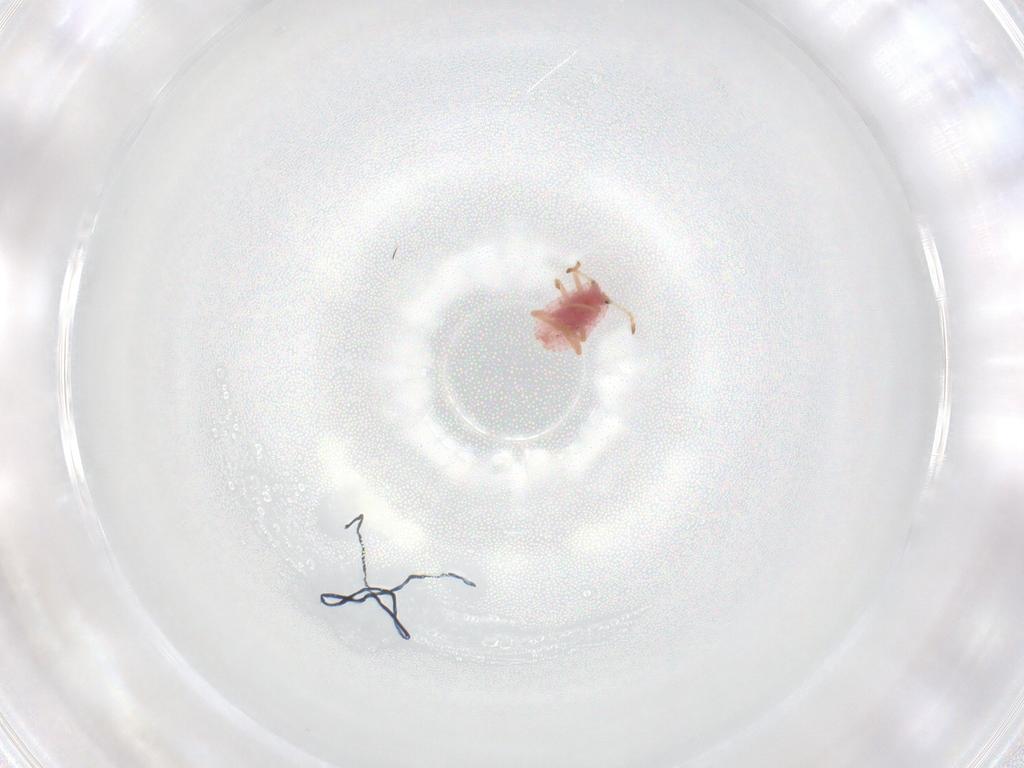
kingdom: Animalia
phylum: Arthropoda
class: Insecta
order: Hemiptera
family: Coccoidea_incertae_sedis
